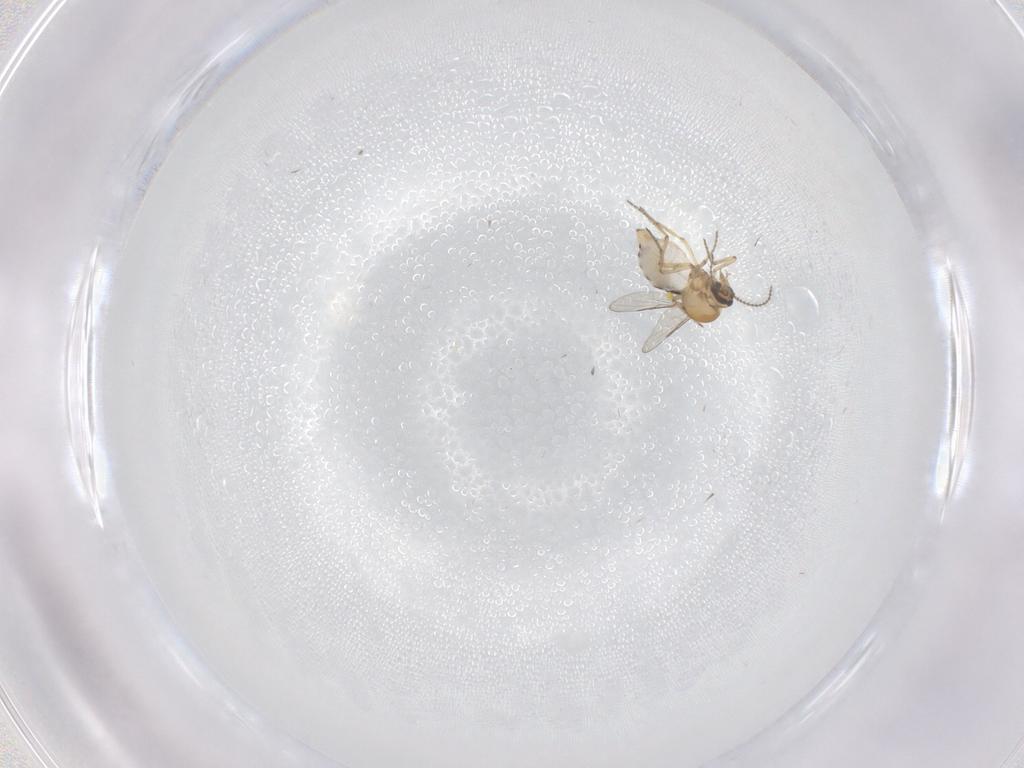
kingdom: Animalia
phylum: Arthropoda
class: Insecta
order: Diptera
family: Ceratopogonidae
